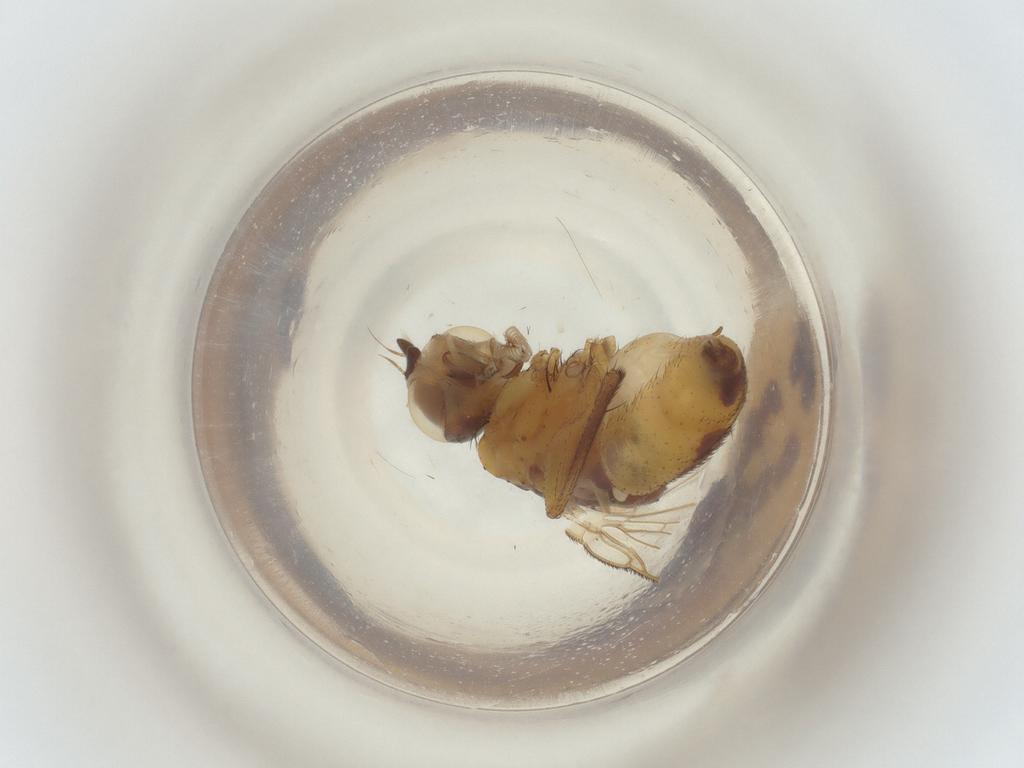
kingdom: Animalia
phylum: Arthropoda
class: Insecta
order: Diptera
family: Muscidae
